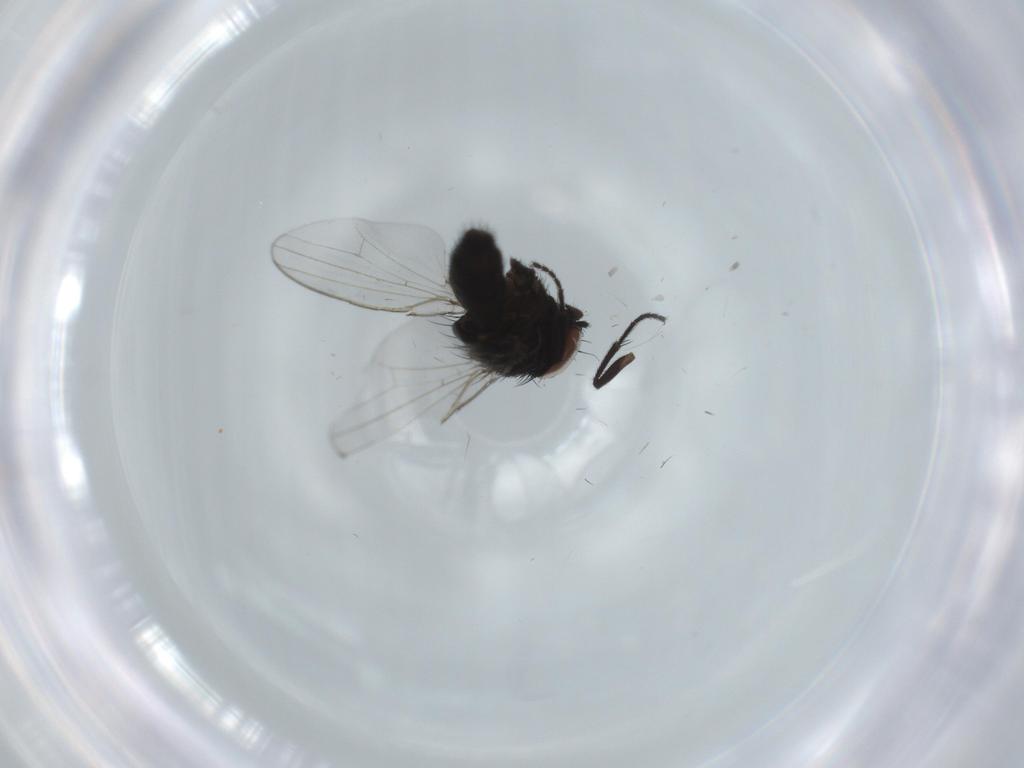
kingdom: Animalia
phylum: Arthropoda
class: Insecta
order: Diptera
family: Milichiidae
